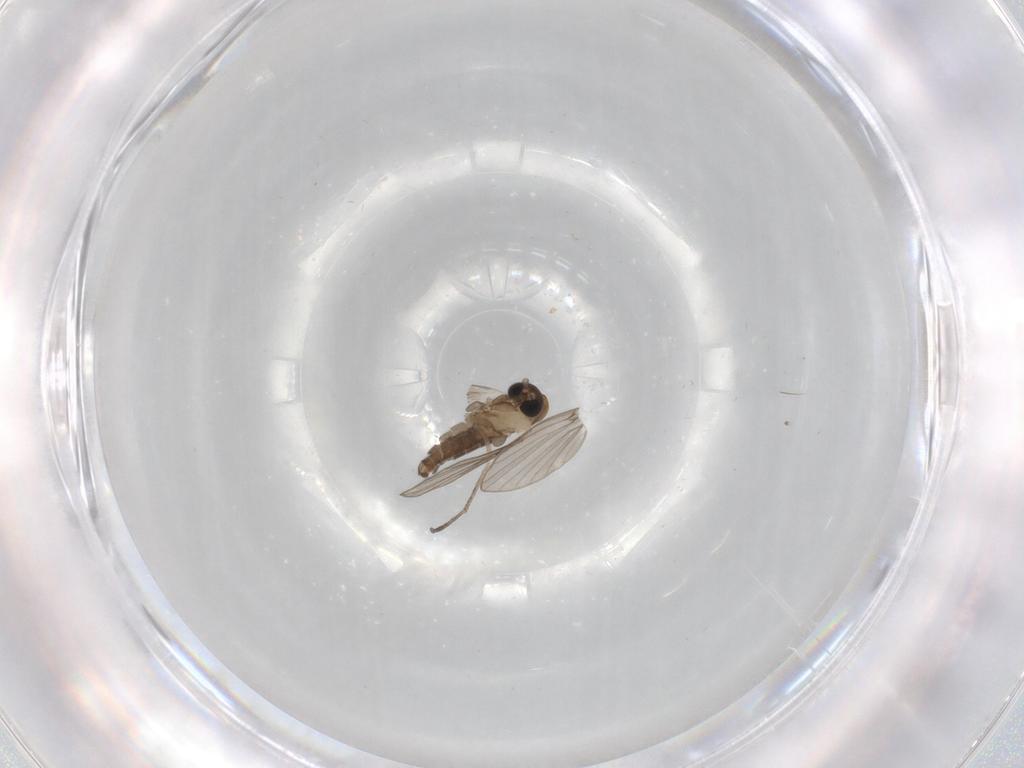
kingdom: Animalia
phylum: Arthropoda
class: Insecta
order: Diptera
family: Psychodidae
